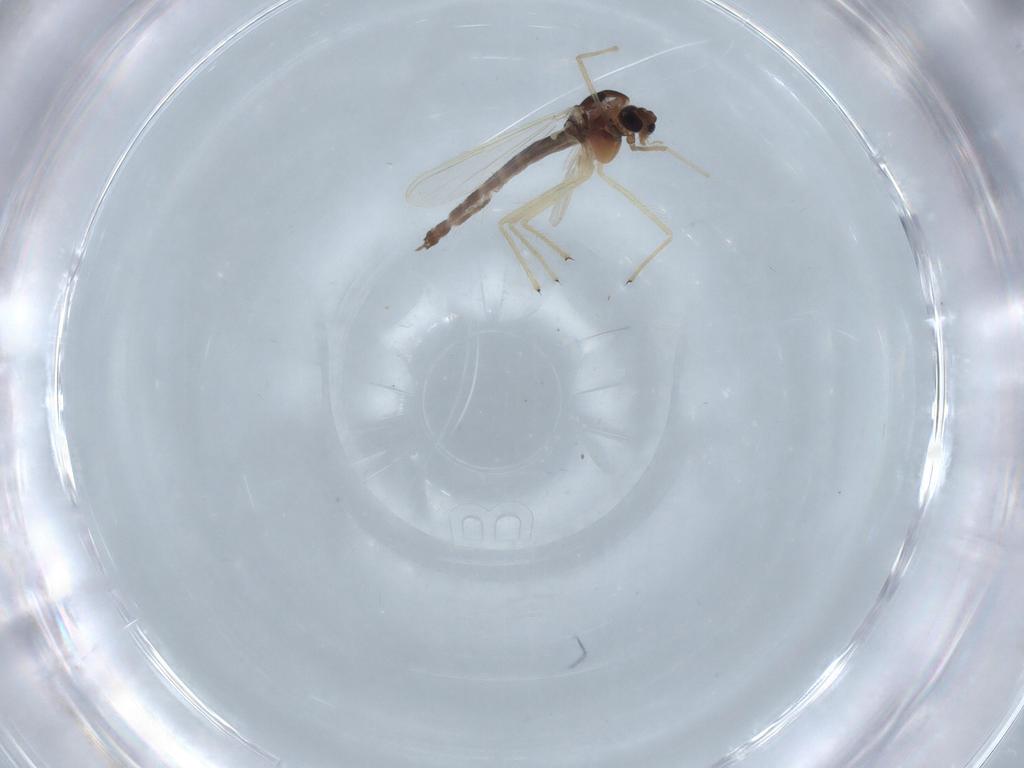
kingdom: Animalia
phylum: Arthropoda
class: Insecta
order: Diptera
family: Chironomidae
